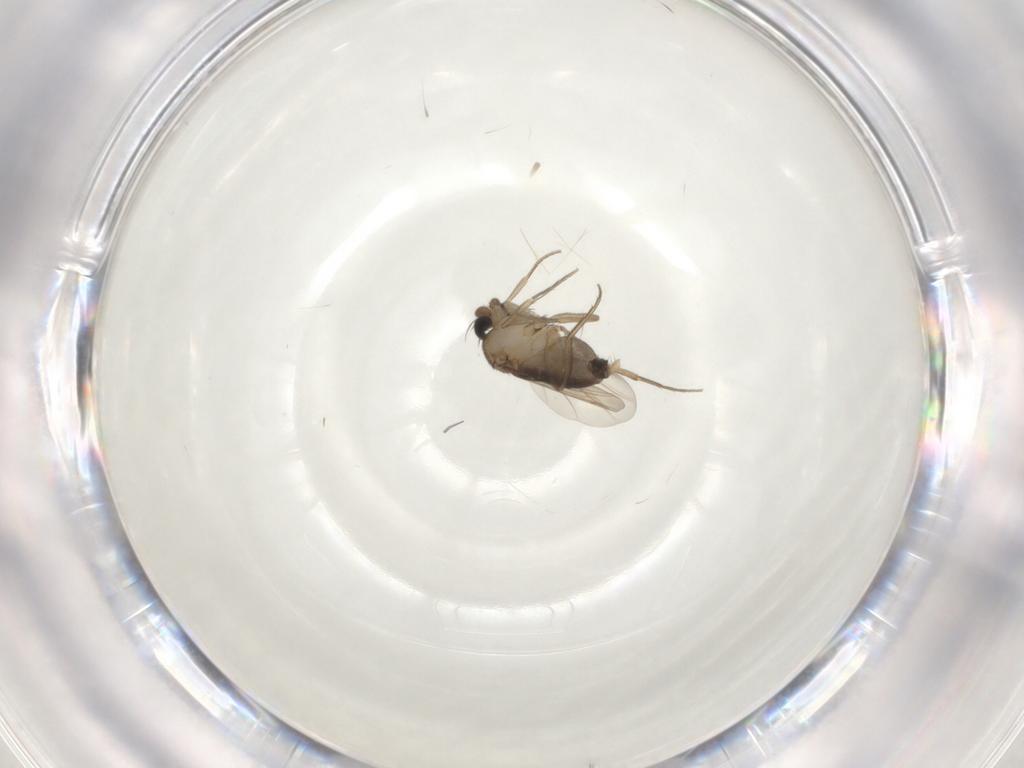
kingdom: Animalia
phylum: Arthropoda
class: Insecta
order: Diptera
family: Phoridae
